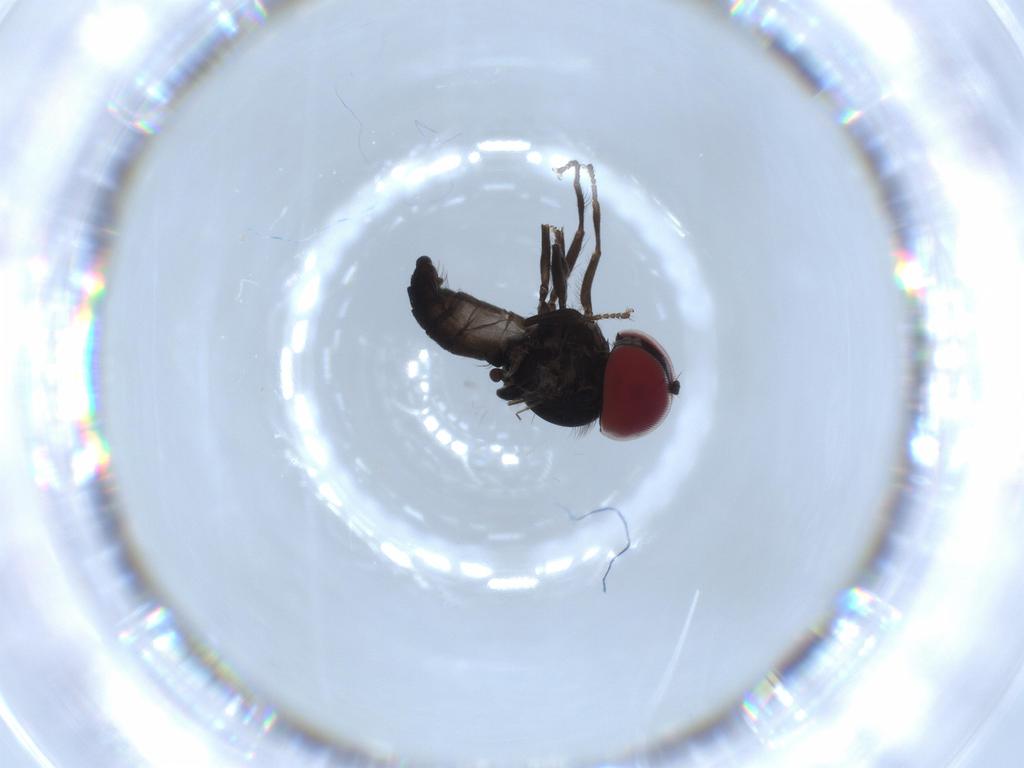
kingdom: Animalia
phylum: Arthropoda
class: Insecta
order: Diptera
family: Pipunculidae
